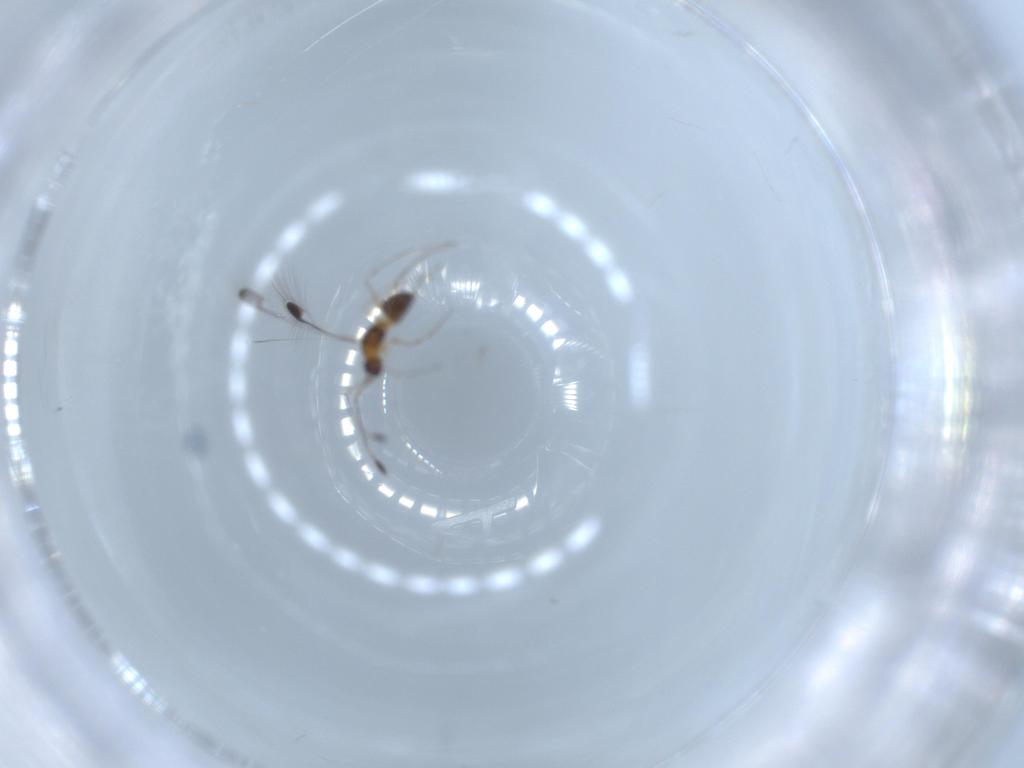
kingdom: Animalia
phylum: Arthropoda
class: Insecta
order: Hymenoptera
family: Mymaridae
